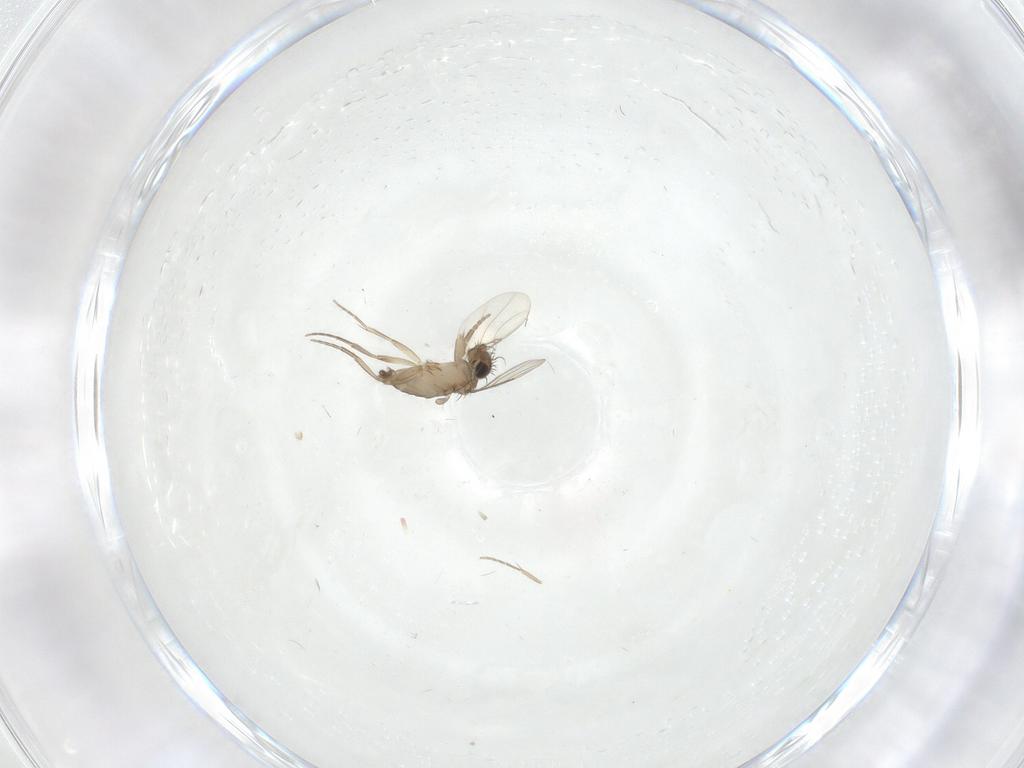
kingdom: Animalia
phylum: Arthropoda
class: Insecta
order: Diptera
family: Phoridae
